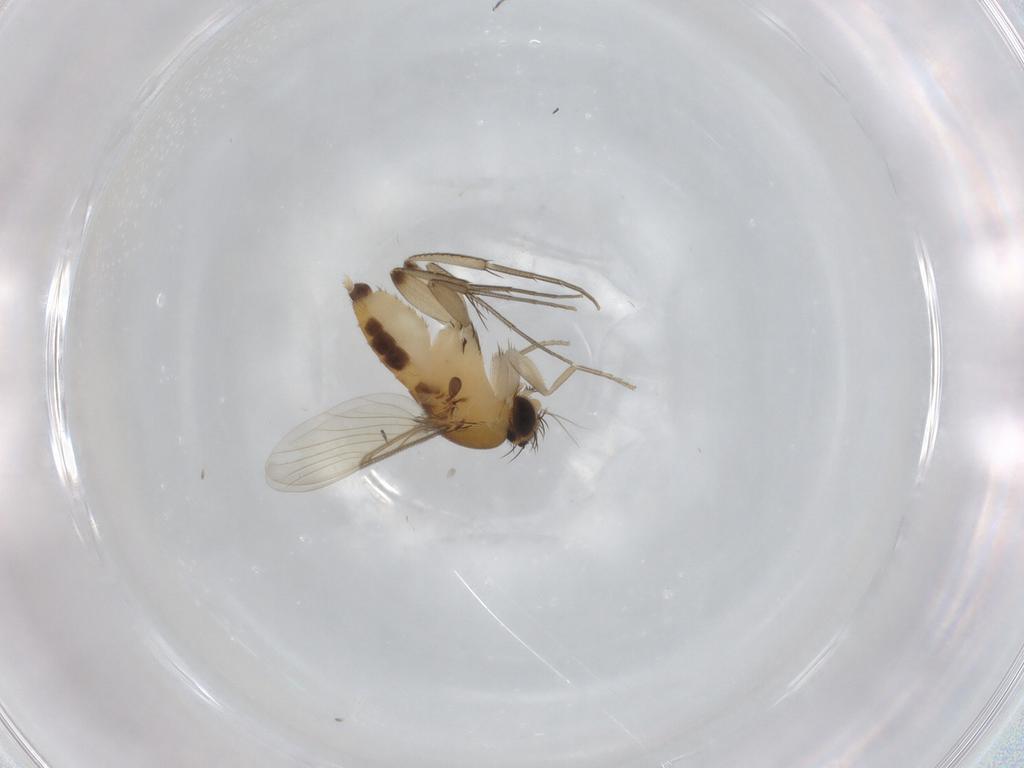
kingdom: Animalia
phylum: Arthropoda
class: Insecta
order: Diptera
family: Phoridae
